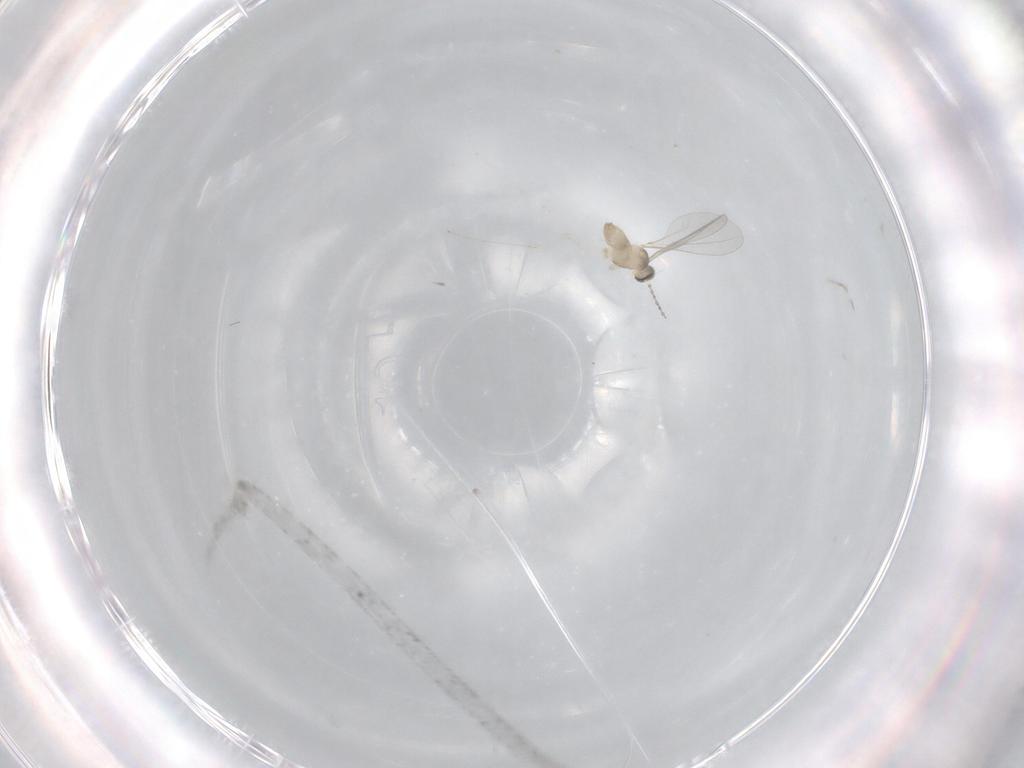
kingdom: Animalia
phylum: Arthropoda
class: Insecta
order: Diptera
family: Cecidomyiidae
